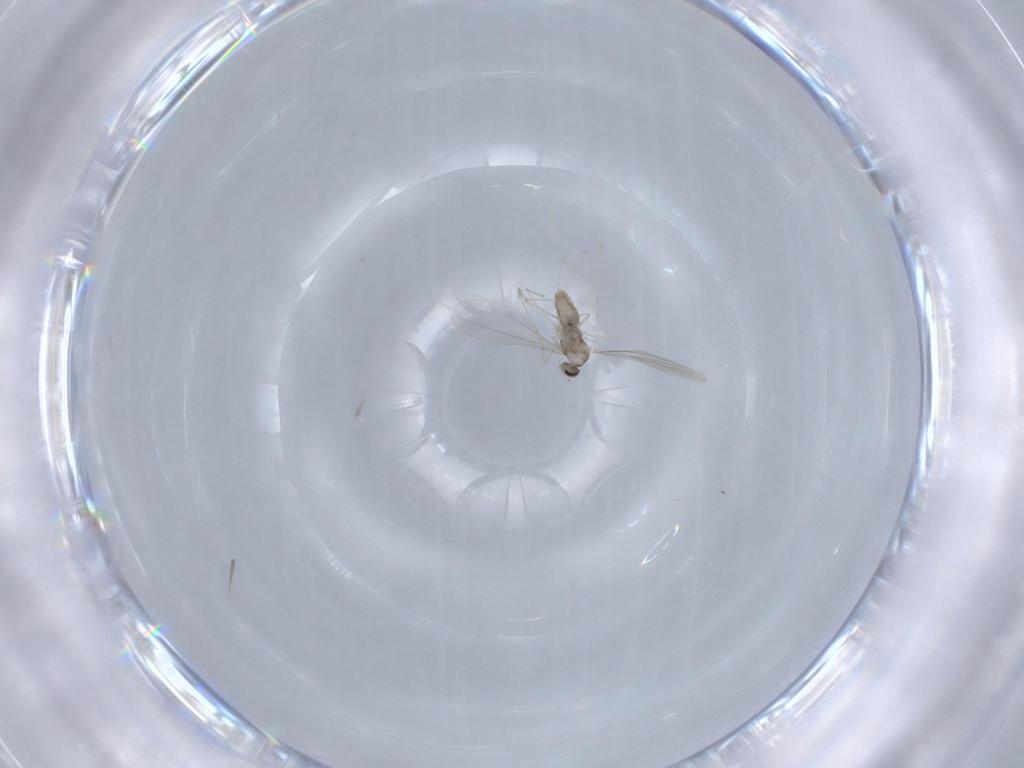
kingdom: Animalia
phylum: Arthropoda
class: Insecta
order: Diptera
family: Cecidomyiidae
